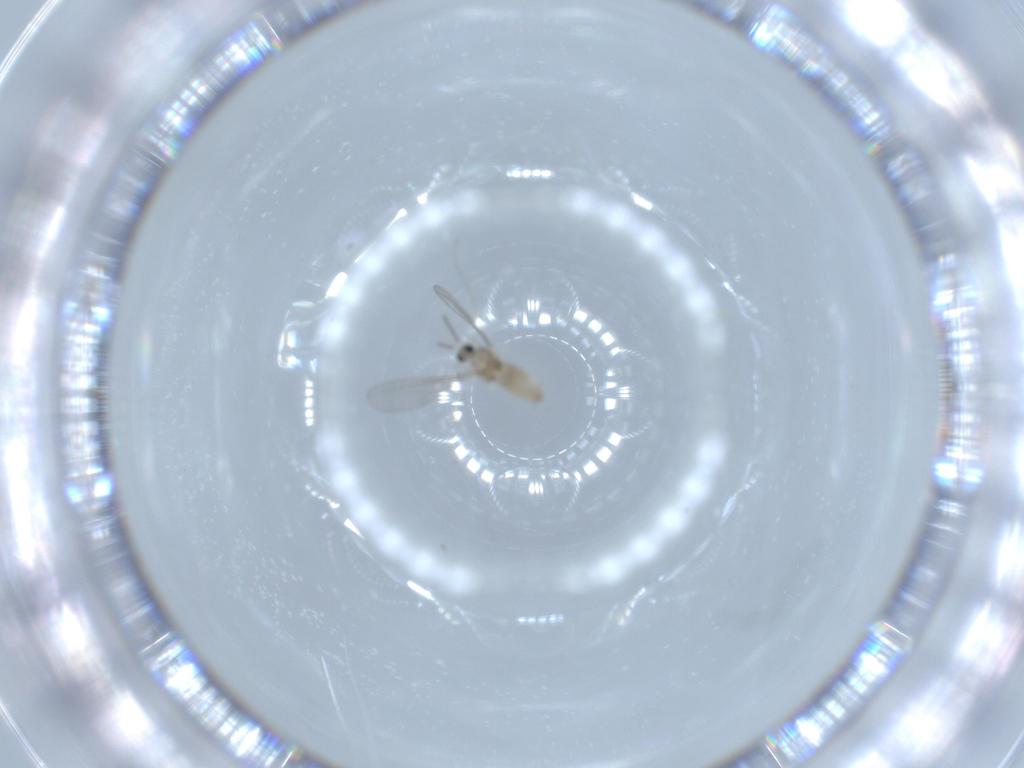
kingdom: Animalia
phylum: Arthropoda
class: Insecta
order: Diptera
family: Cecidomyiidae
